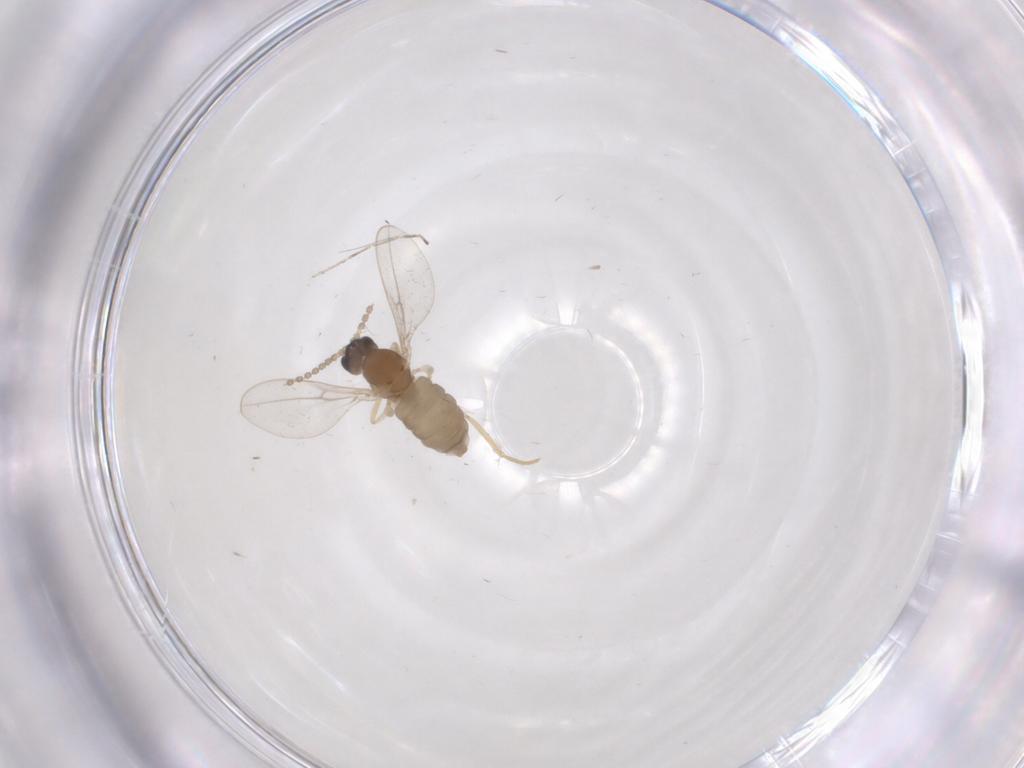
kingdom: Animalia
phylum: Arthropoda
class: Insecta
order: Diptera
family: Cecidomyiidae
